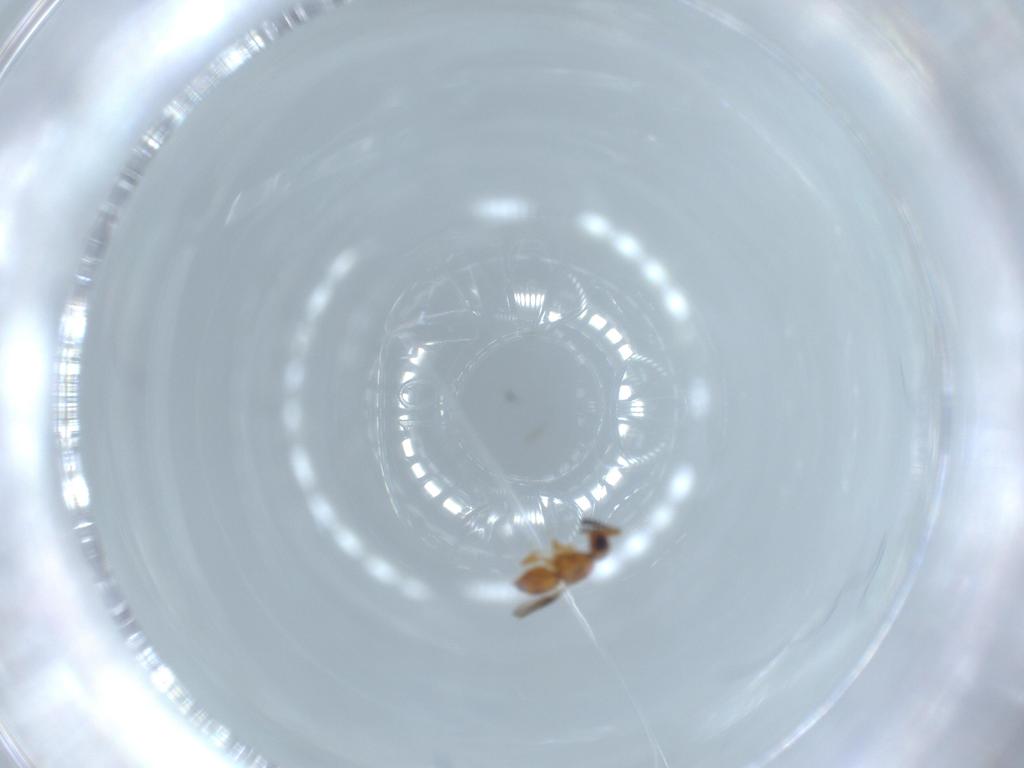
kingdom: Animalia
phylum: Arthropoda
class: Insecta
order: Hymenoptera
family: Ceraphronidae
